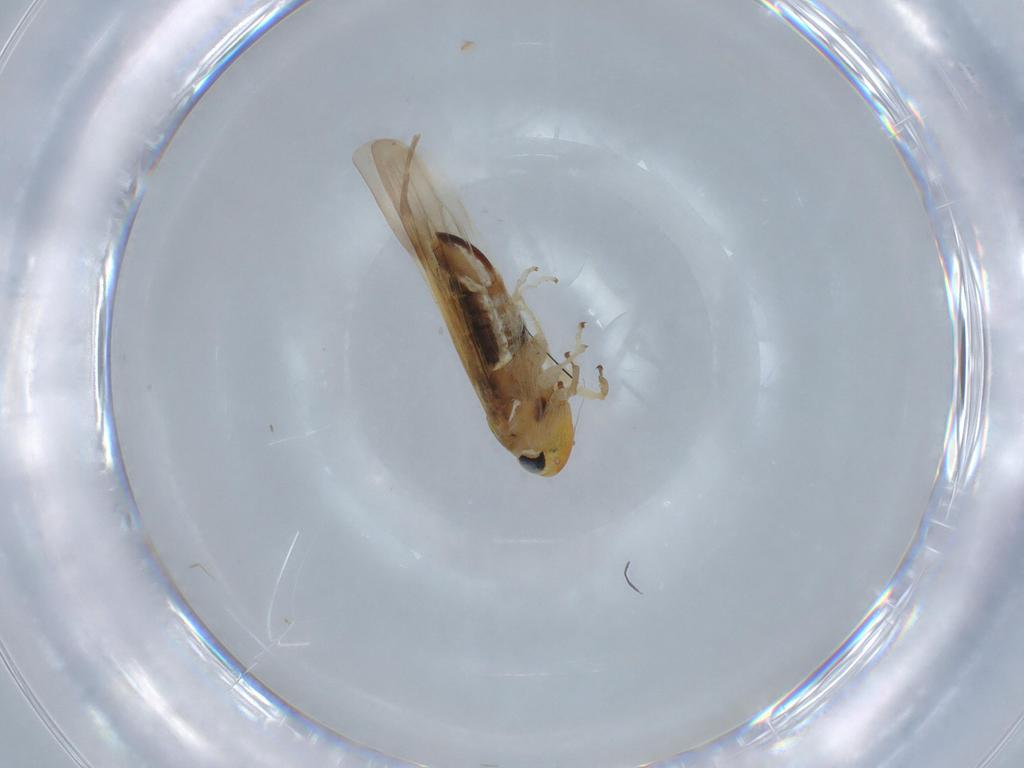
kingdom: Animalia
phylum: Arthropoda
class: Insecta
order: Hemiptera
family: Cicadellidae
